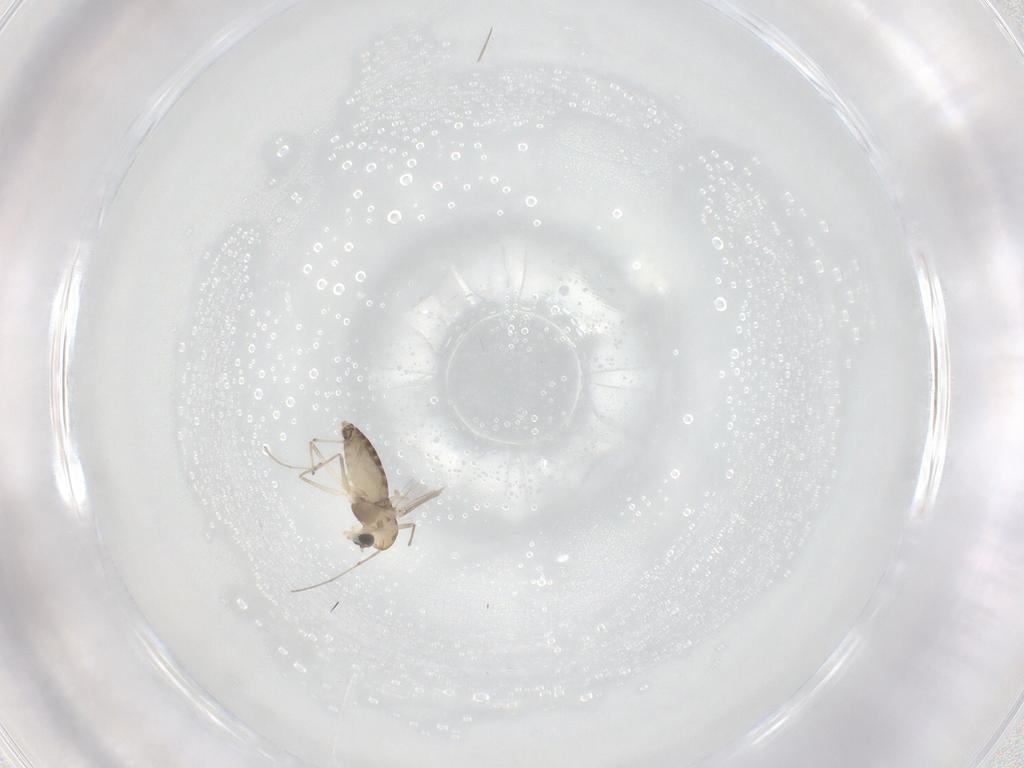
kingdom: Animalia
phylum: Arthropoda
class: Insecta
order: Diptera
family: Chironomidae
